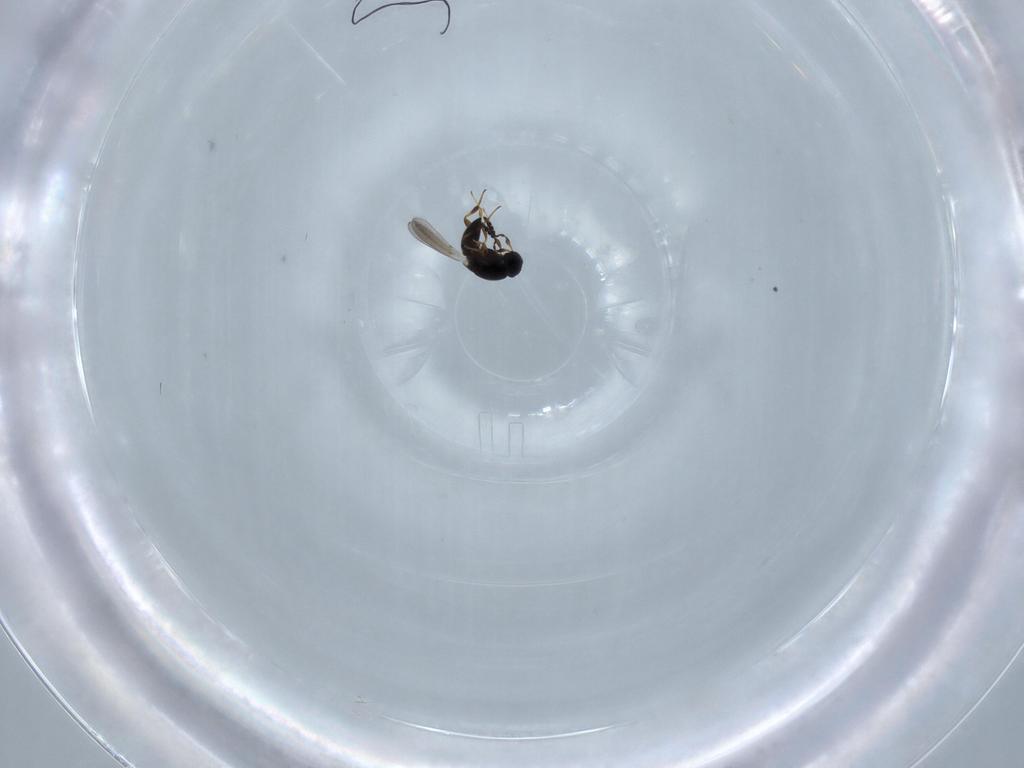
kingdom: Animalia
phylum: Arthropoda
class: Insecta
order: Hymenoptera
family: Platygastridae
